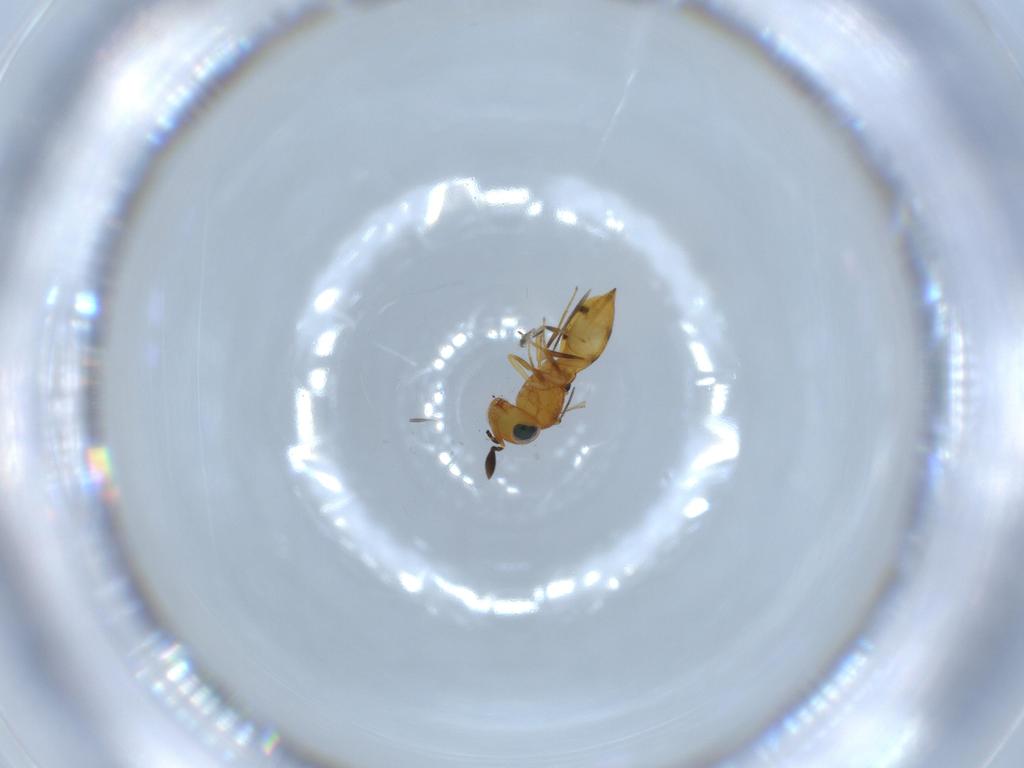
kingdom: Animalia
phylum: Arthropoda
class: Insecta
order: Hymenoptera
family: Scelionidae
